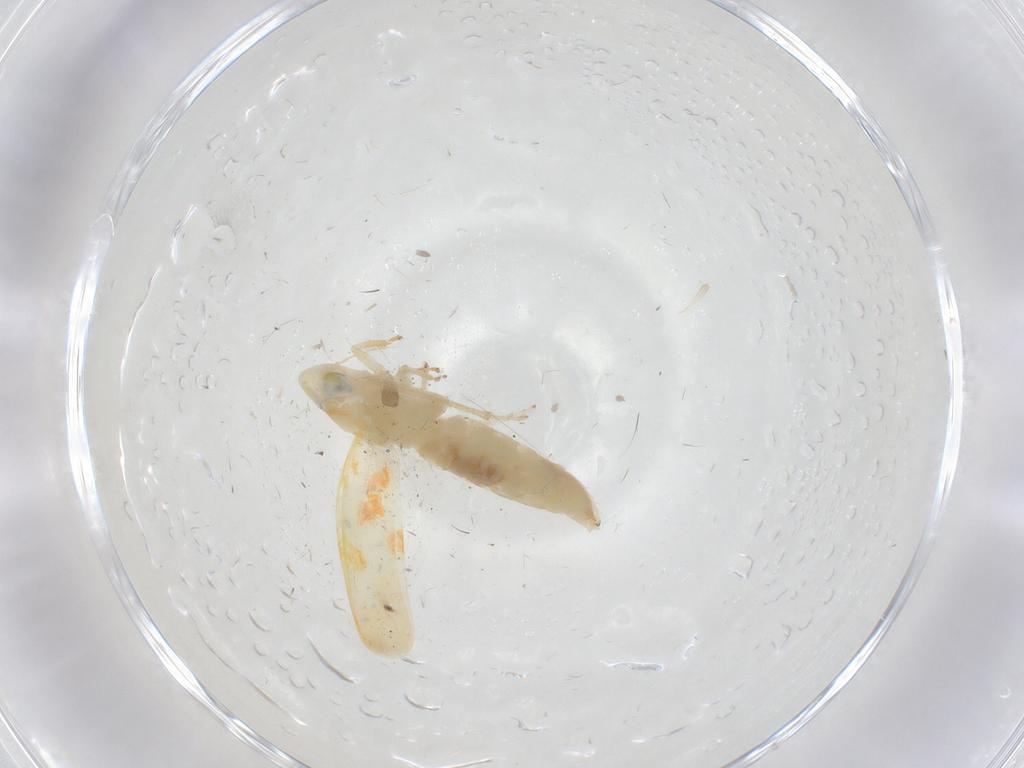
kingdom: Animalia
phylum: Arthropoda
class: Insecta
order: Hemiptera
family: Cicadellidae
